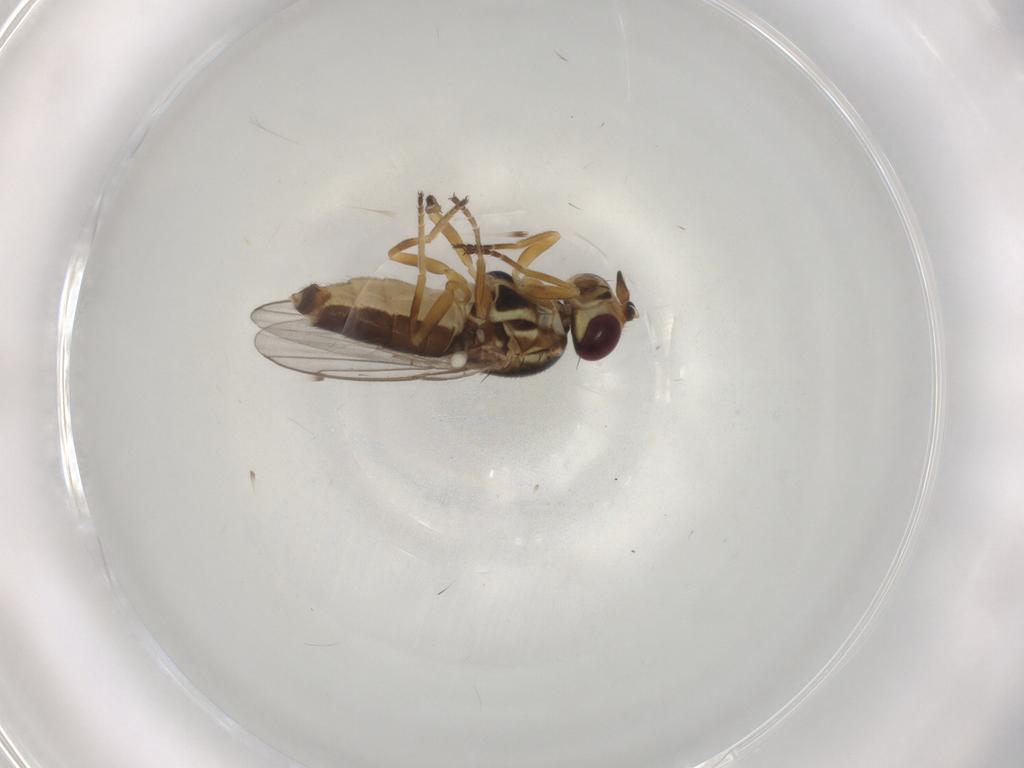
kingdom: Animalia
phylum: Arthropoda
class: Insecta
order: Diptera
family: Chloropidae
